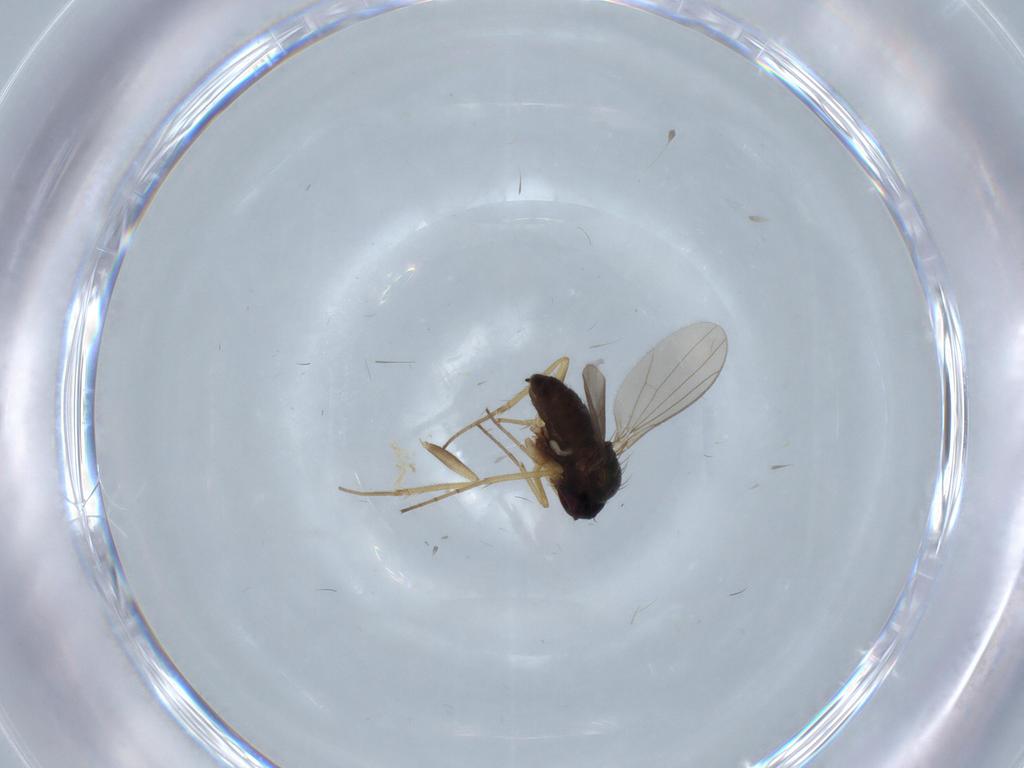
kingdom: Animalia
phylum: Arthropoda
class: Insecta
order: Diptera
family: Dolichopodidae
